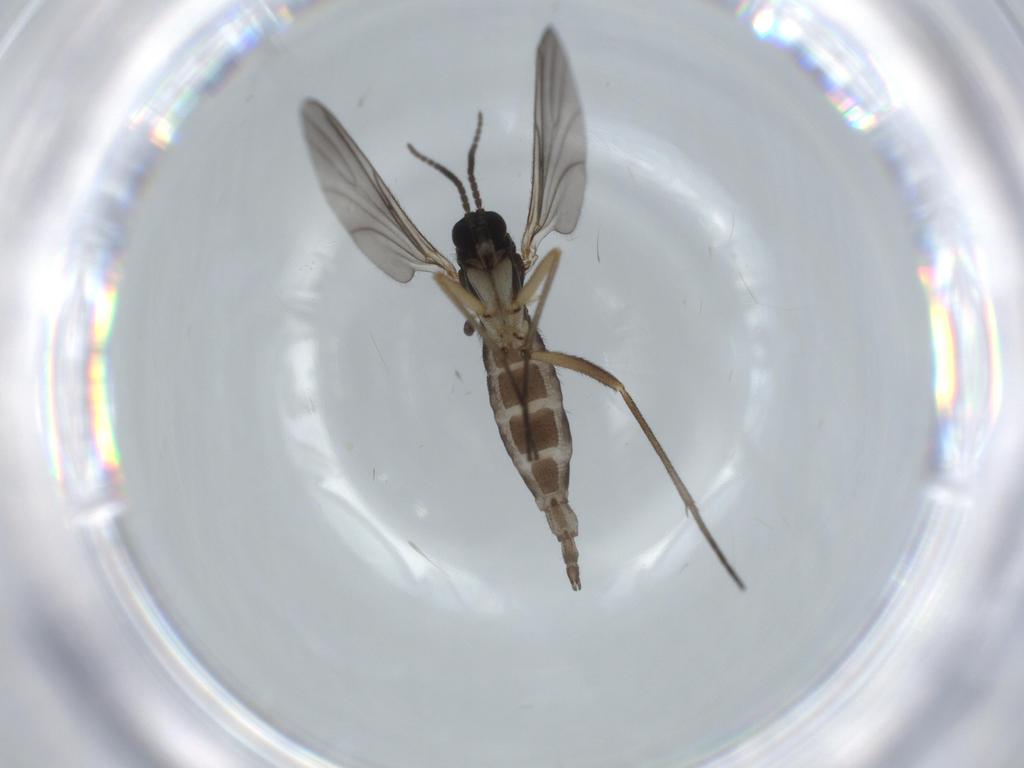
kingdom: Animalia
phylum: Arthropoda
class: Insecta
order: Diptera
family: Sciaridae
